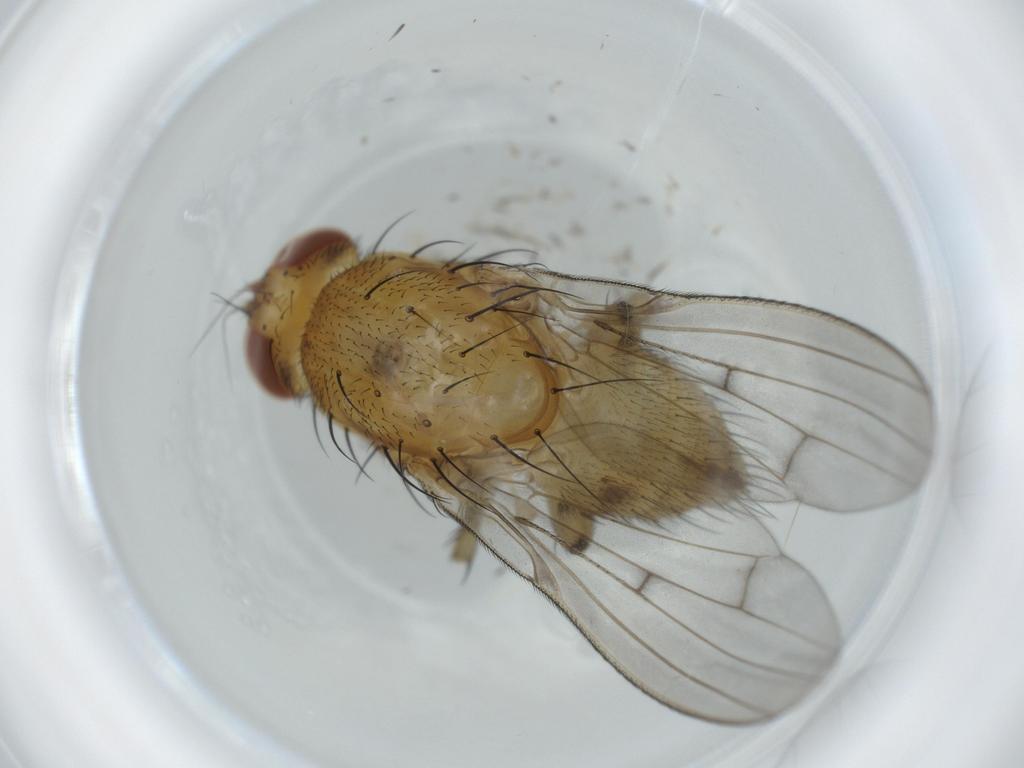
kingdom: Animalia
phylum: Arthropoda
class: Insecta
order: Diptera
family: Cecidomyiidae
